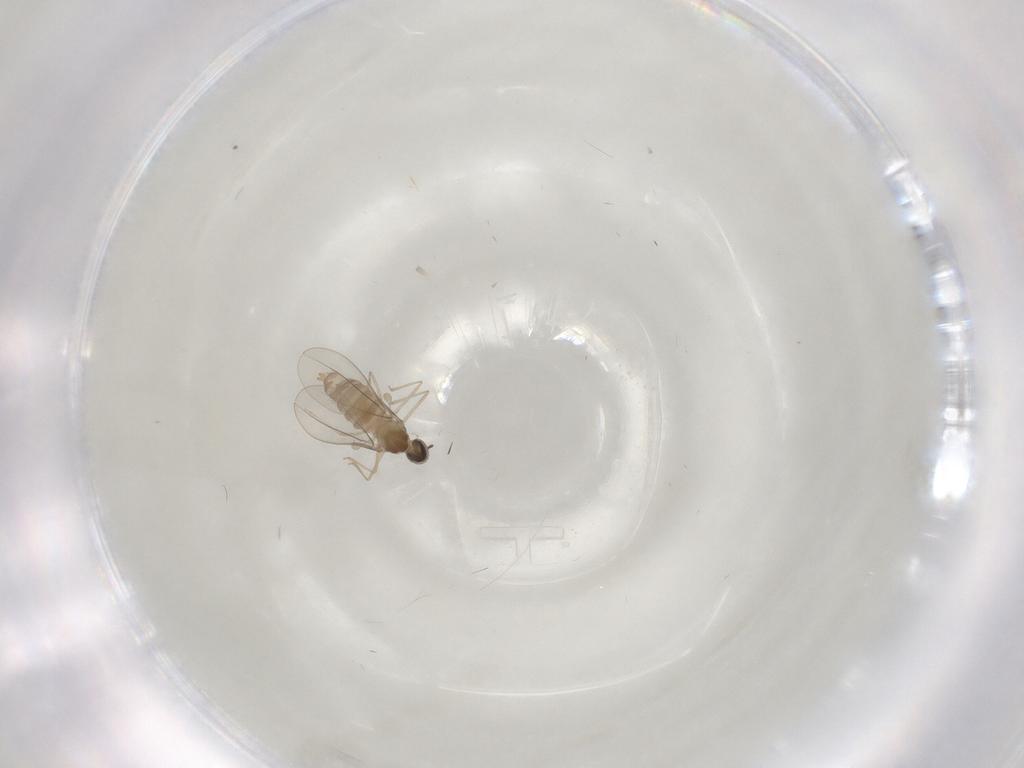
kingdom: Animalia
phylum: Arthropoda
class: Insecta
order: Diptera
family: Cecidomyiidae
